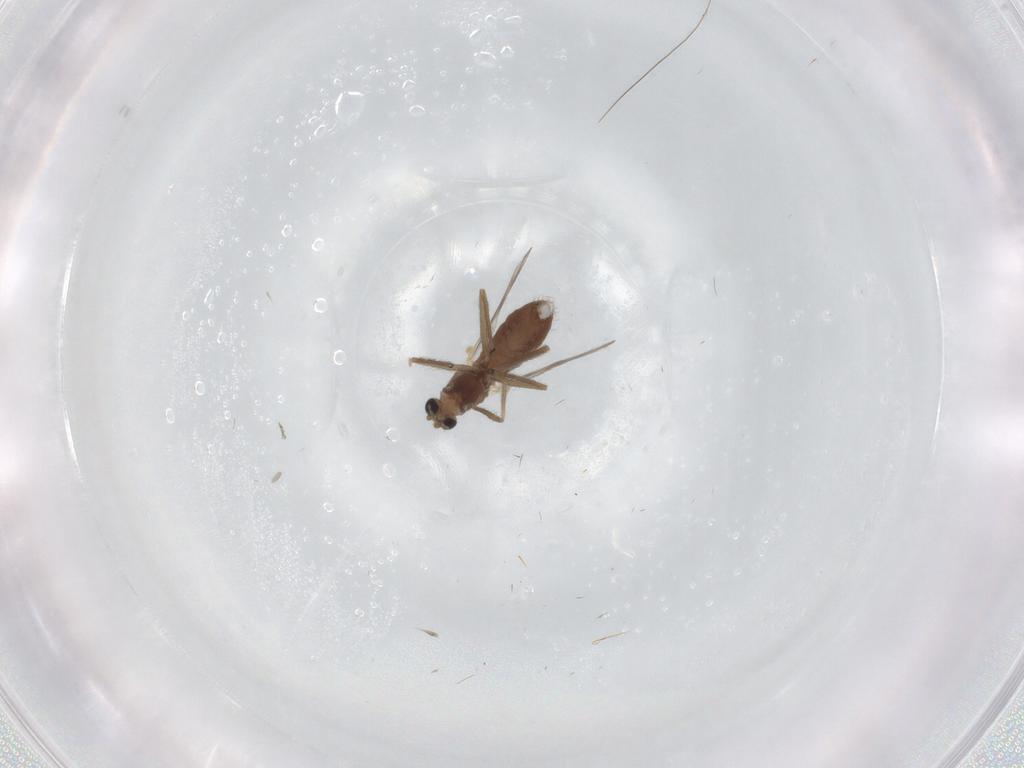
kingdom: Animalia
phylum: Arthropoda
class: Insecta
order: Diptera
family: Chironomidae
